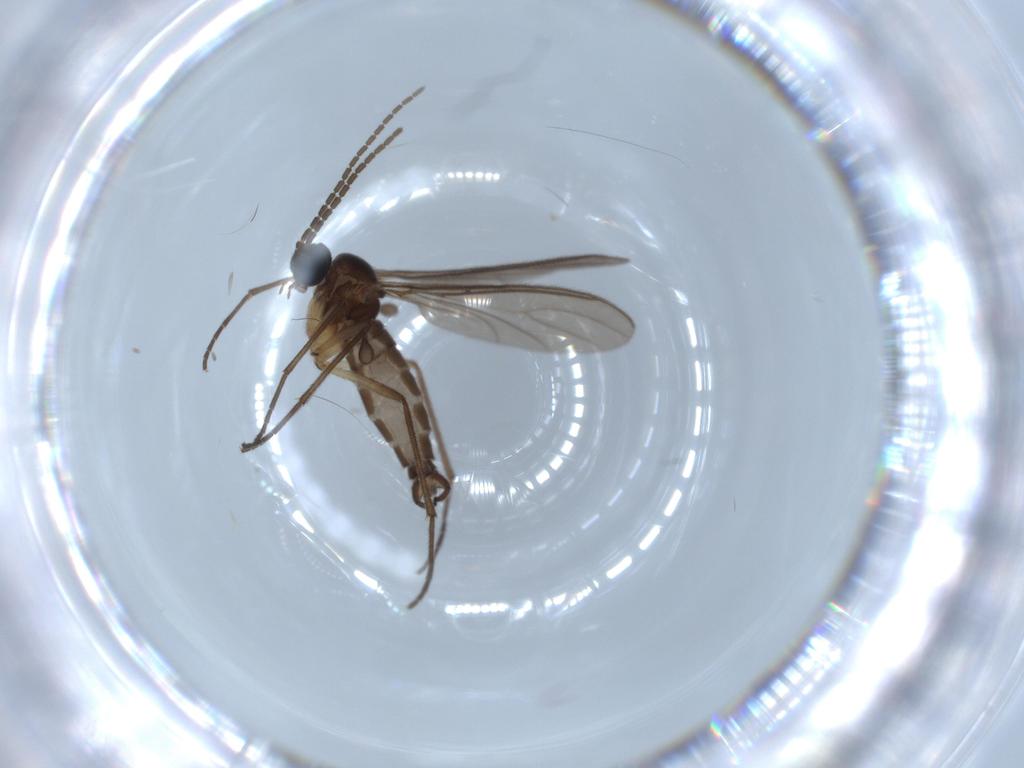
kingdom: Animalia
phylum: Arthropoda
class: Insecta
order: Diptera
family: Sciaridae
